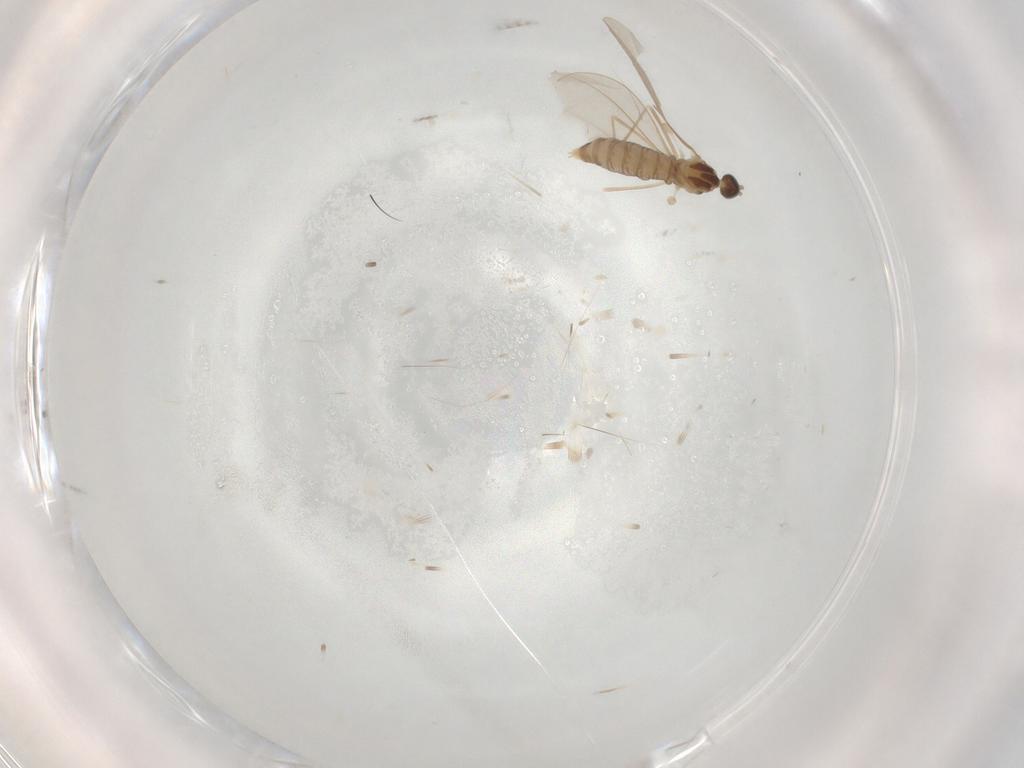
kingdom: Animalia
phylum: Arthropoda
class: Insecta
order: Diptera
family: Cecidomyiidae
